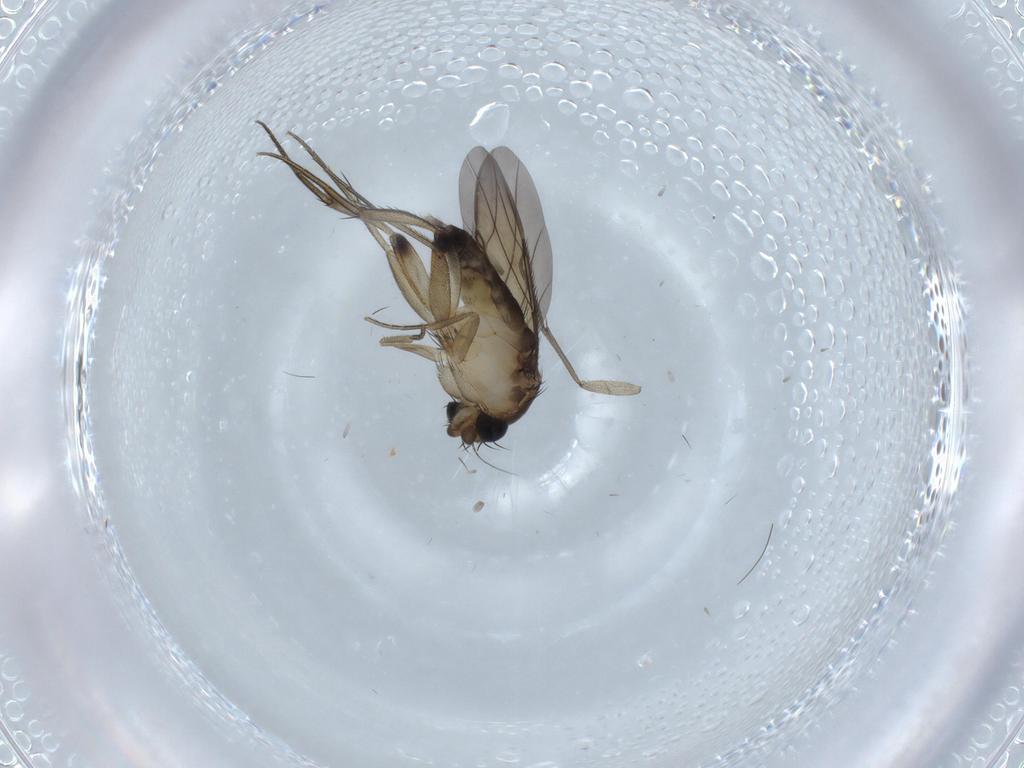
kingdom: Animalia
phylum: Arthropoda
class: Insecta
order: Diptera
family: Phoridae
